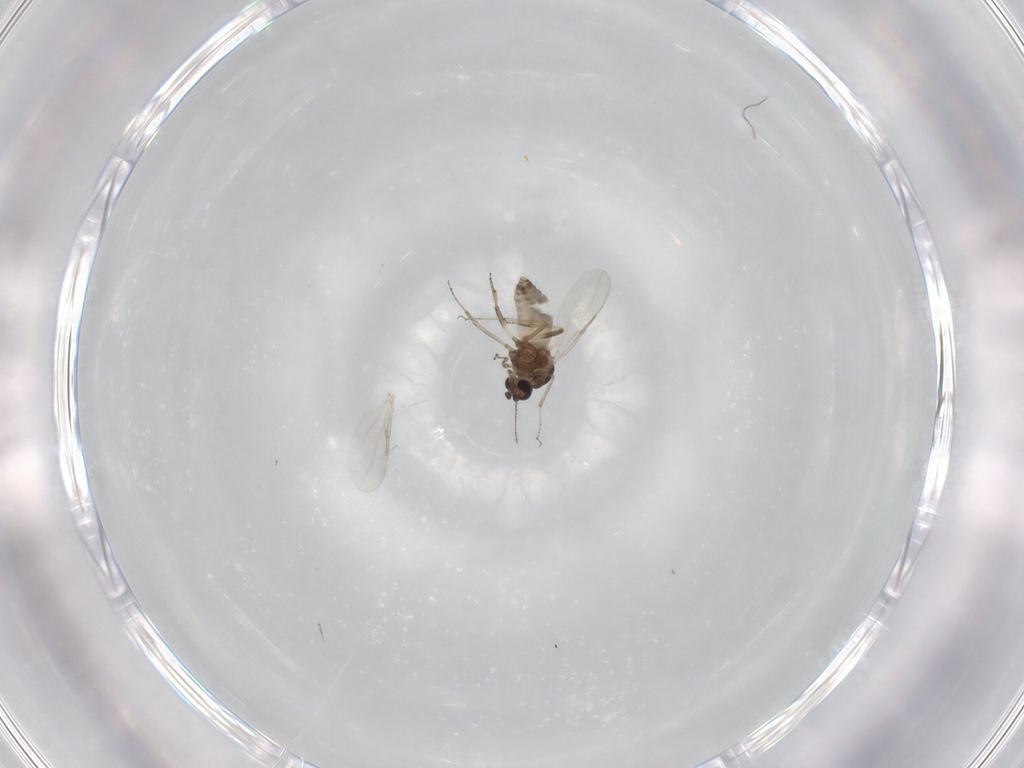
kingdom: Animalia
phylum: Arthropoda
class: Insecta
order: Diptera
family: Ceratopogonidae
